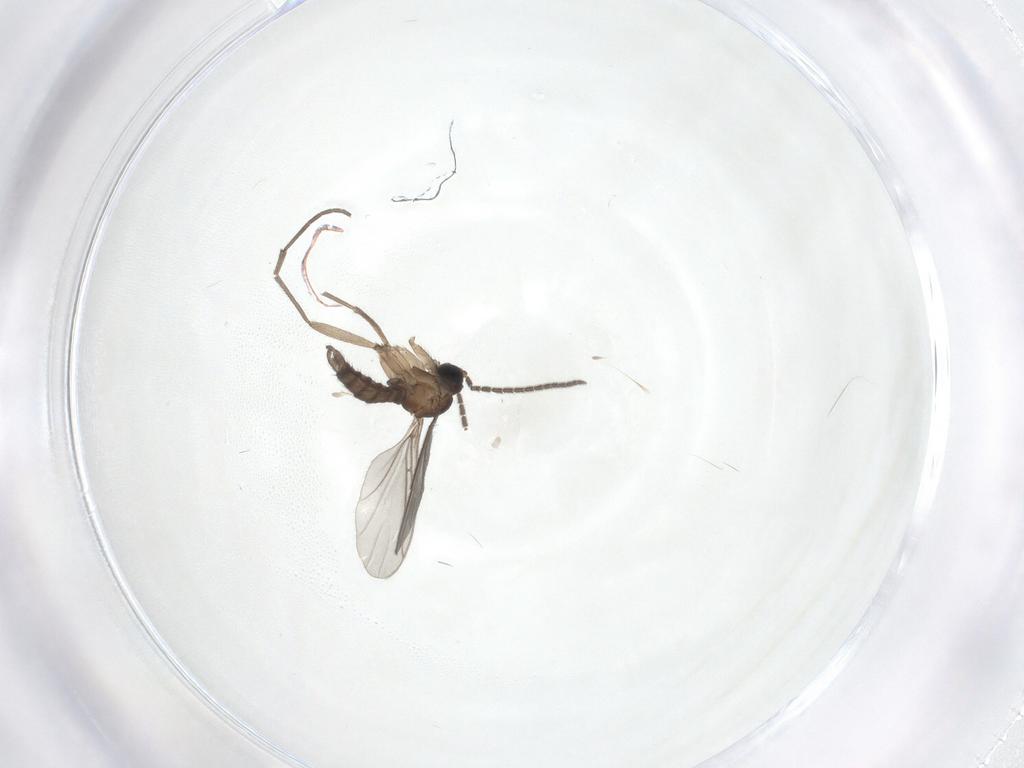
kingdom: Animalia
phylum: Arthropoda
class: Insecta
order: Diptera
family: Sciaridae
